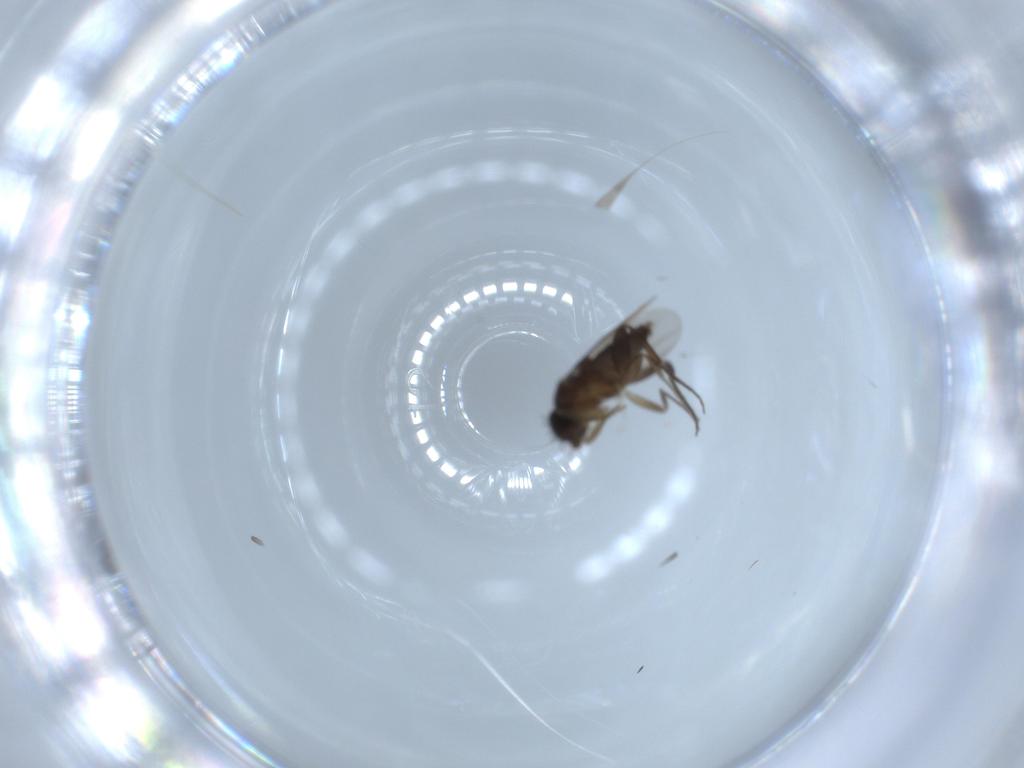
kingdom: Animalia
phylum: Arthropoda
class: Insecta
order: Diptera
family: Phoridae
